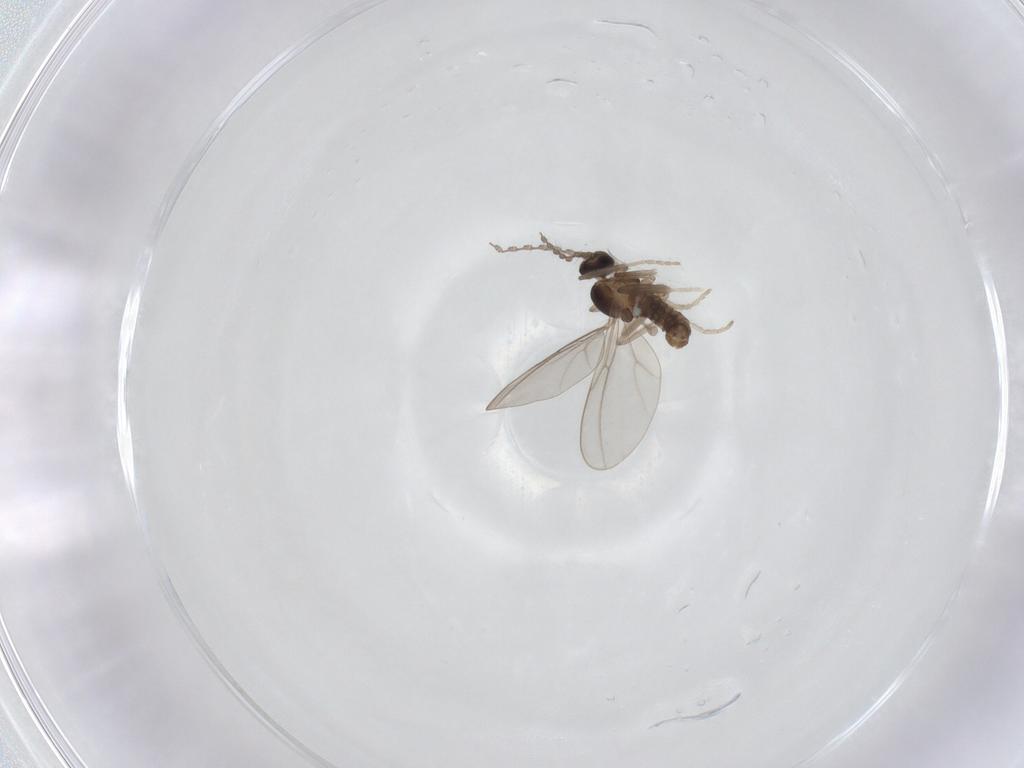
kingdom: Animalia
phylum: Arthropoda
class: Insecta
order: Diptera
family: Cecidomyiidae
